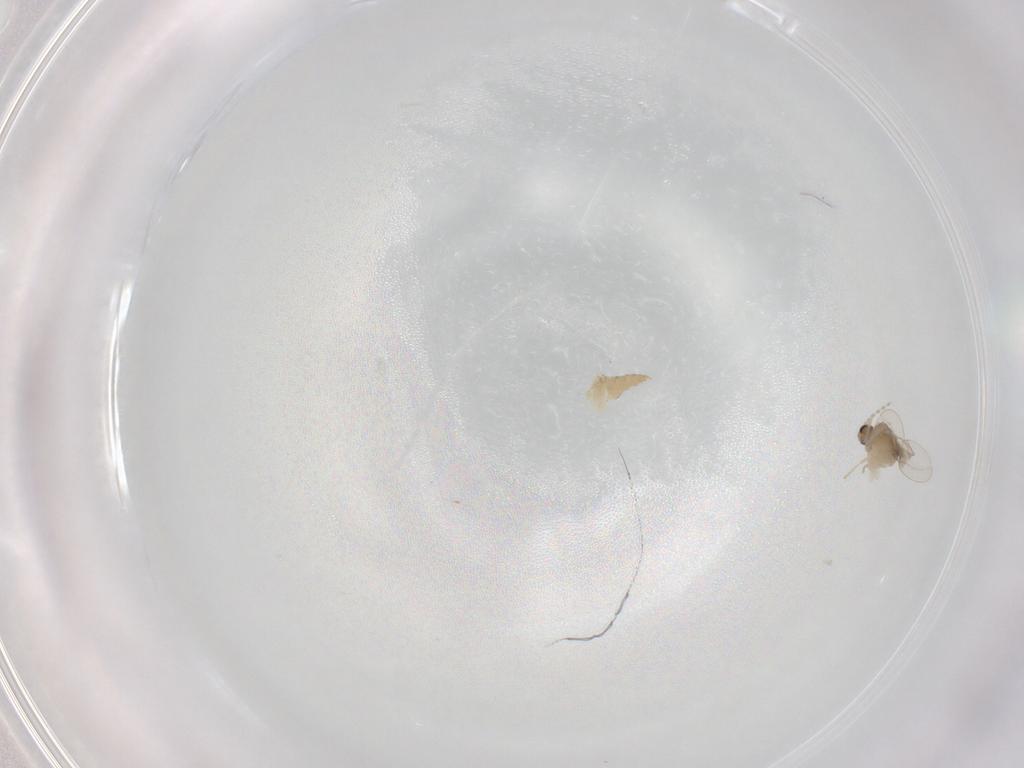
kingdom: Animalia
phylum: Arthropoda
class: Insecta
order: Diptera
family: Cecidomyiidae
